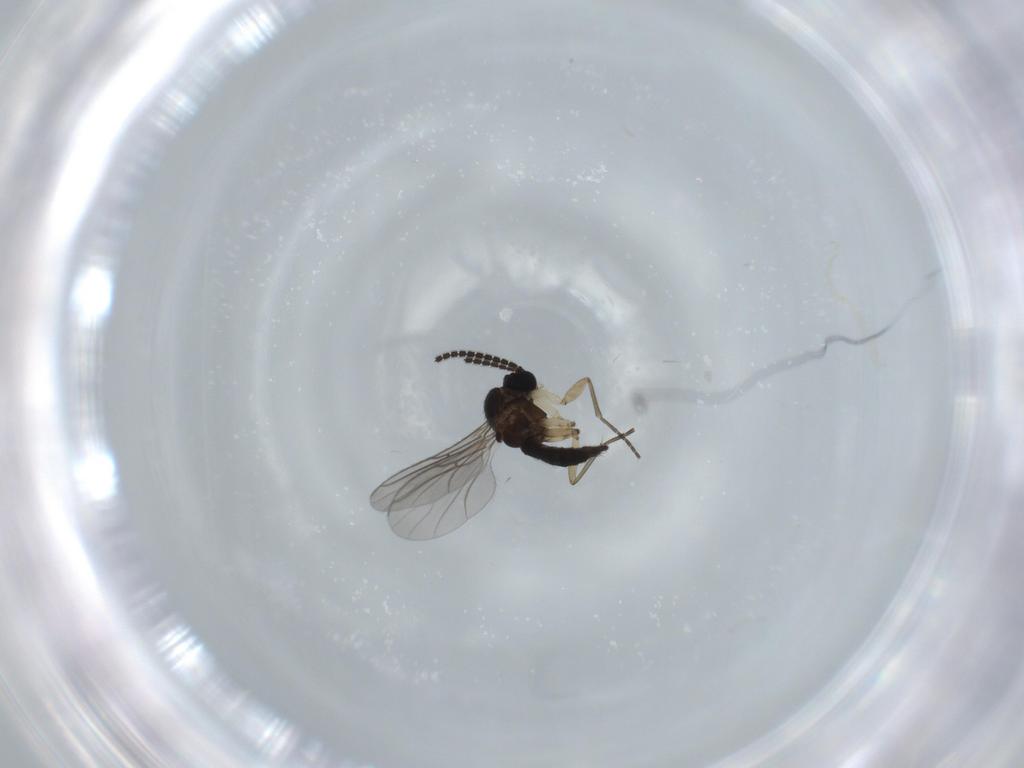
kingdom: Animalia
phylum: Arthropoda
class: Insecta
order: Diptera
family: Sciaridae
